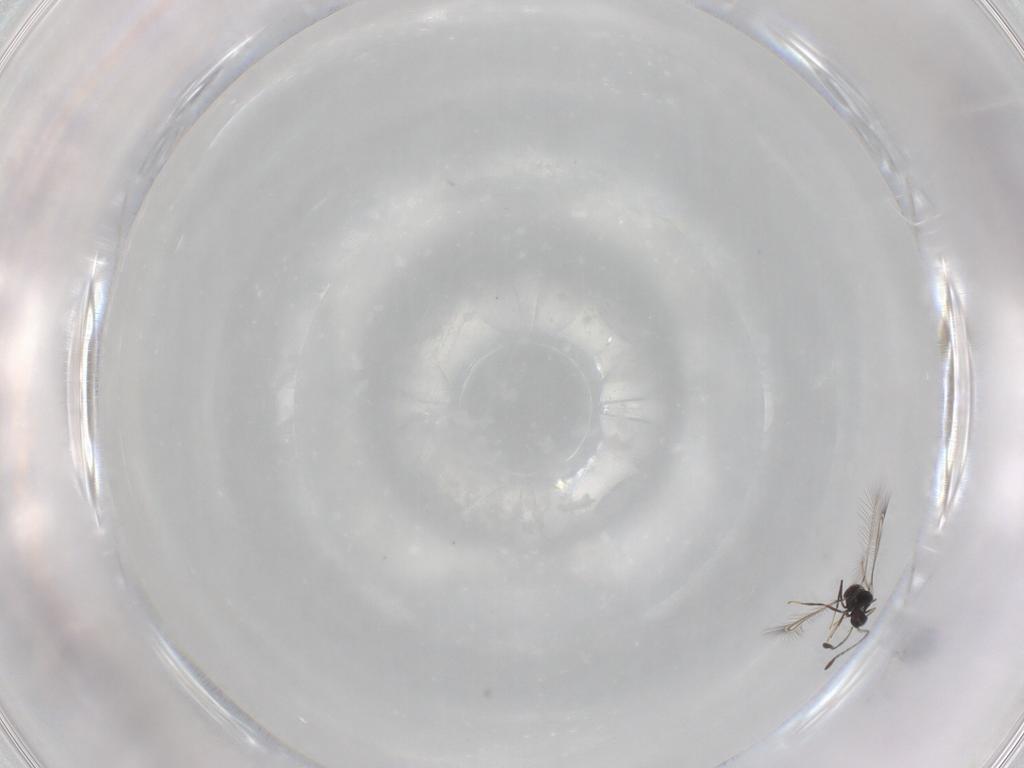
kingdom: Animalia
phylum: Arthropoda
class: Insecta
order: Hymenoptera
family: Mymaridae
